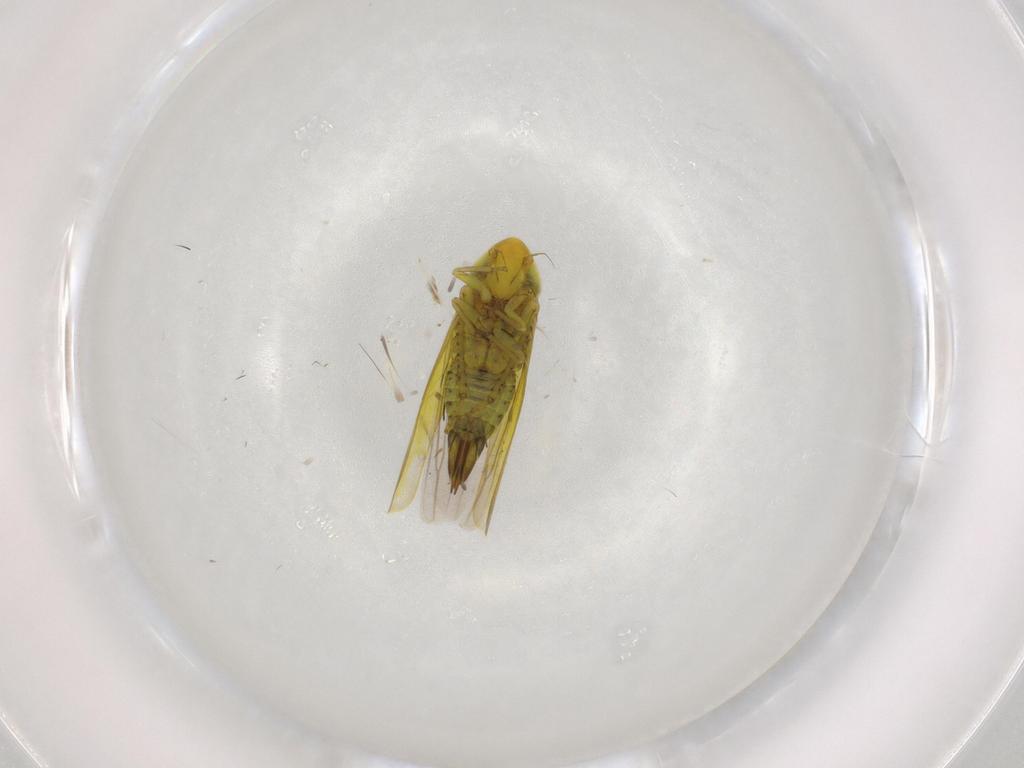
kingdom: Animalia
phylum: Arthropoda
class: Insecta
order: Hemiptera
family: Cicadellidae
